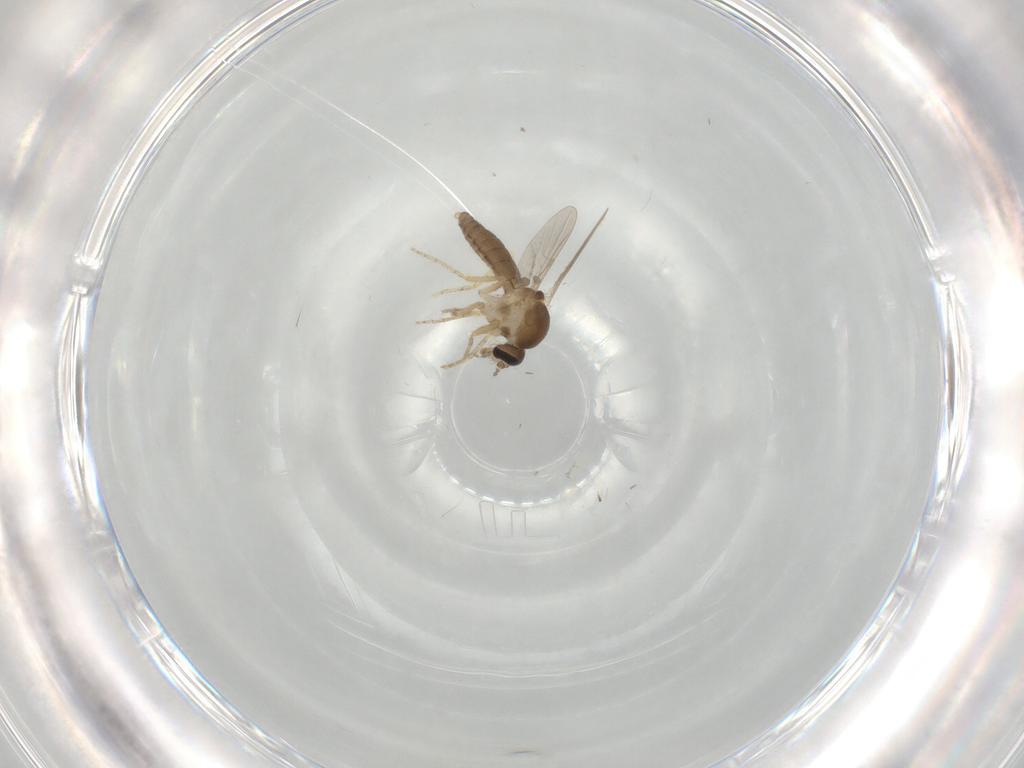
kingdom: Animalia
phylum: Arthropoda
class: Insecta
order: Diptera
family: Ceratopogonidae
